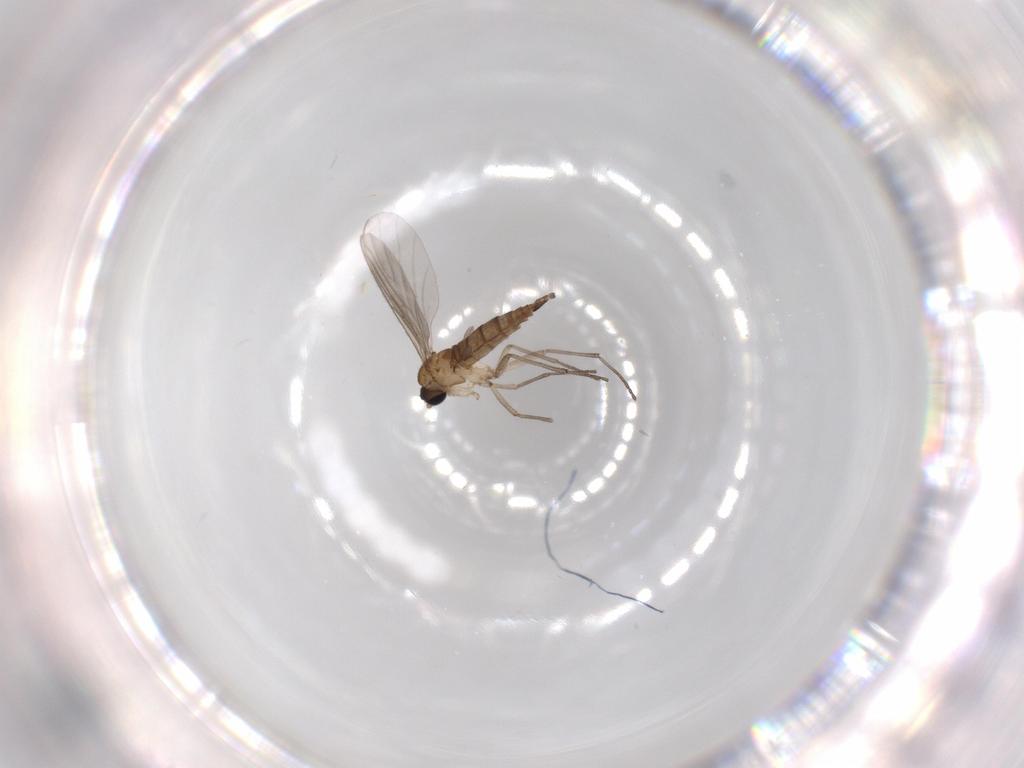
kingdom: Animalia
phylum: Arthropoda
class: Insecta
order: Diptera
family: Sciaridae
